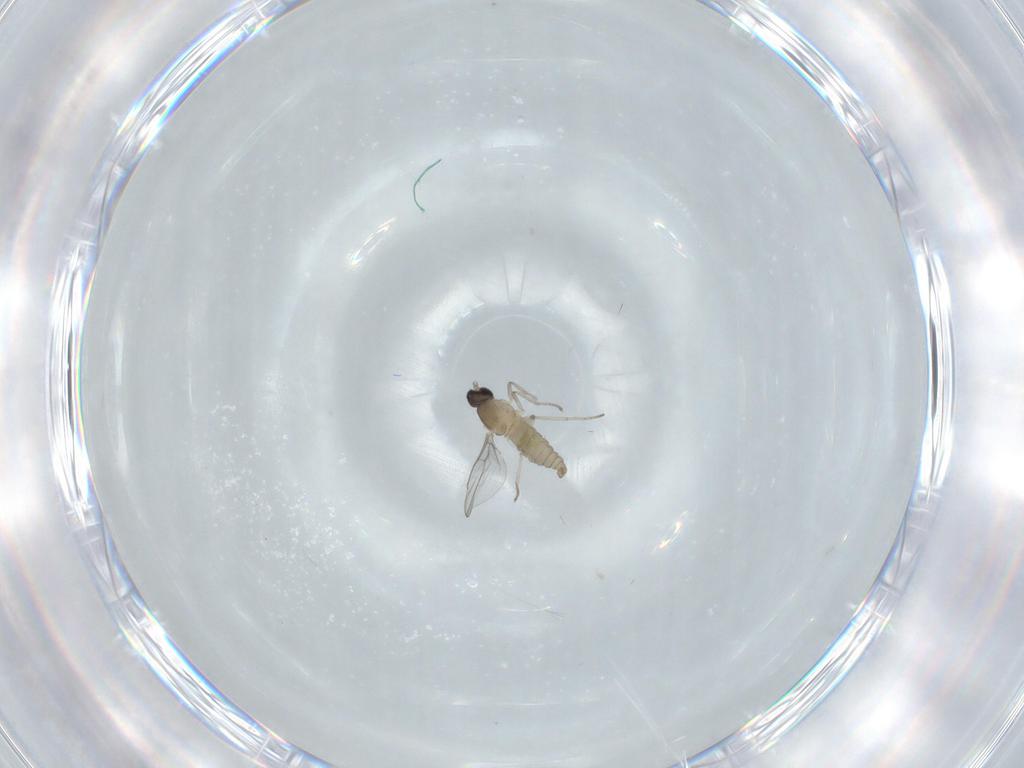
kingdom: Animalia
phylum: Arthropoda
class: Insecta
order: Diptera
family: Cecidomyiidae
